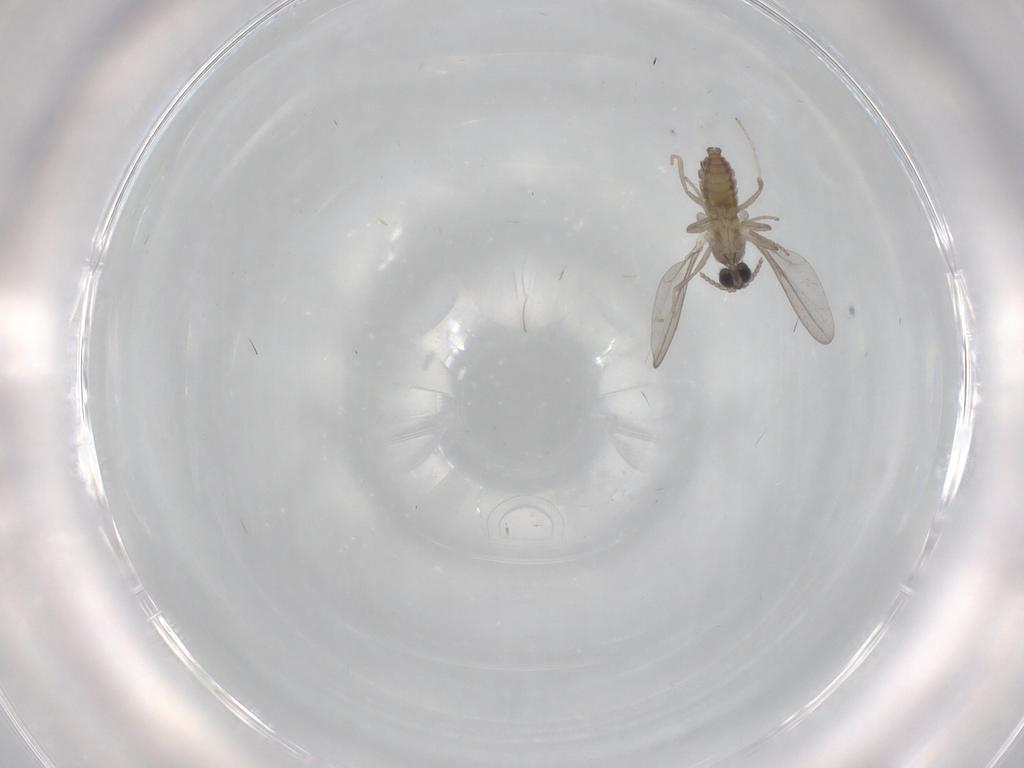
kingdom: Animalia
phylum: Arthropoda
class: Insecta
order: Diptera
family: Cecidomyiidae
